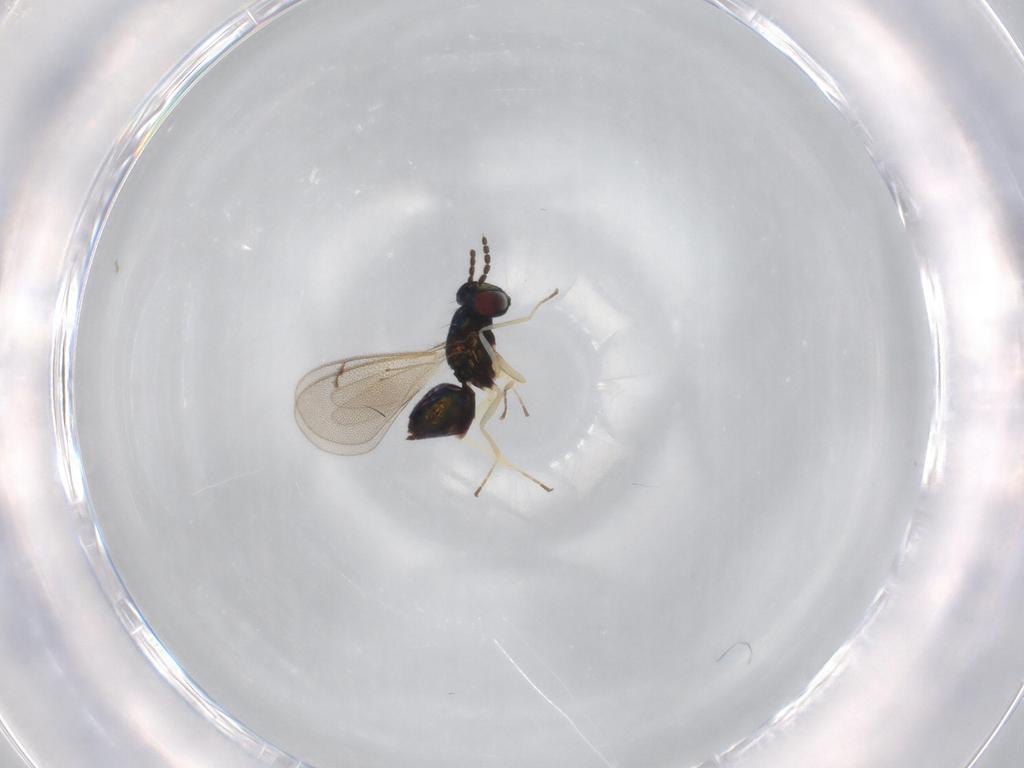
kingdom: Animalia
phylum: Arthropoda
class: Insecta
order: Hymenoptera
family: Eulophidae
